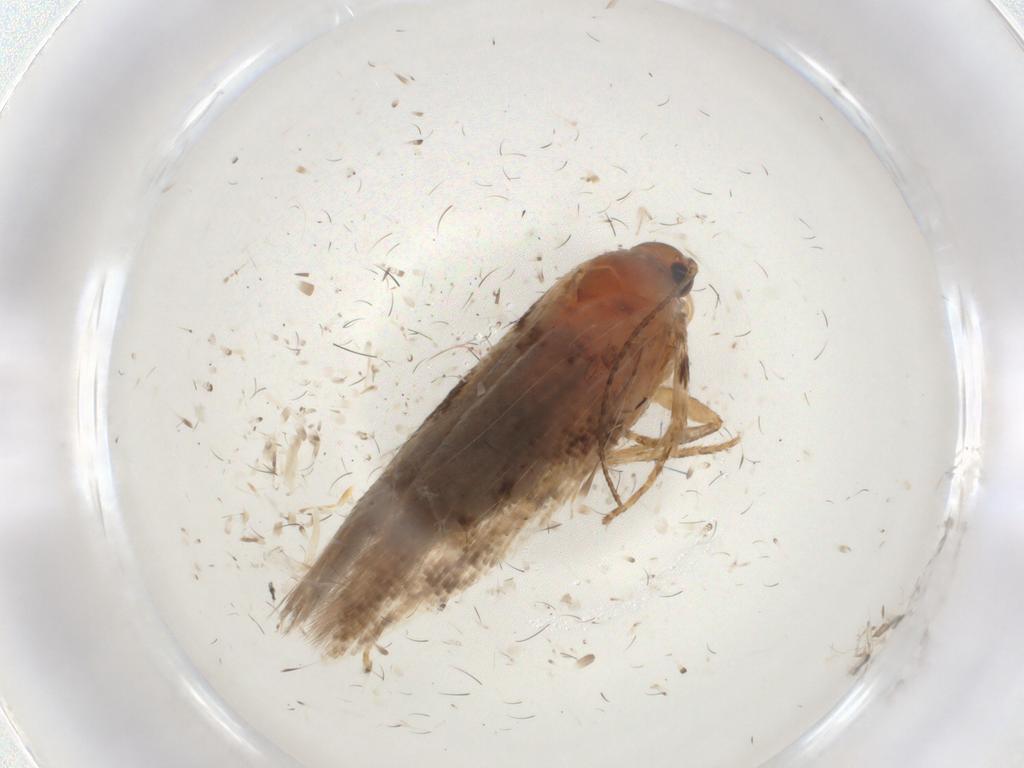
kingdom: Animalia
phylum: Arthropoda
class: Insecta
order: Lepidoptera
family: Plutellidae
